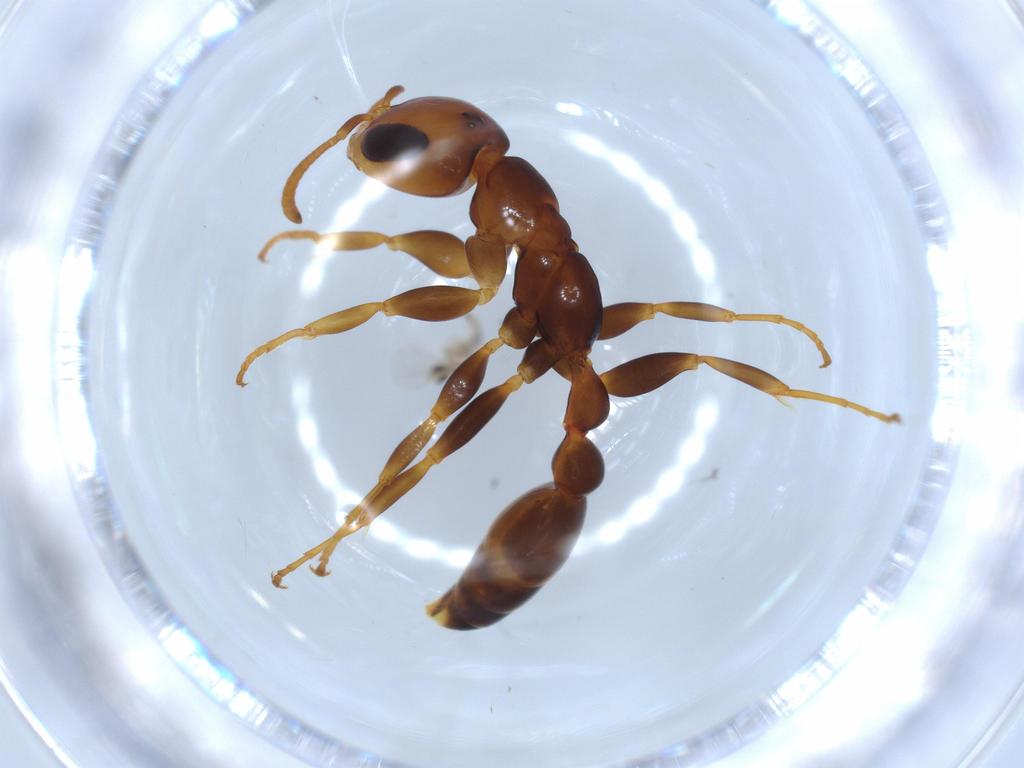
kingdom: Animalia
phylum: Arthropoda
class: Insecta
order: Hymenoptera
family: Formicidae
